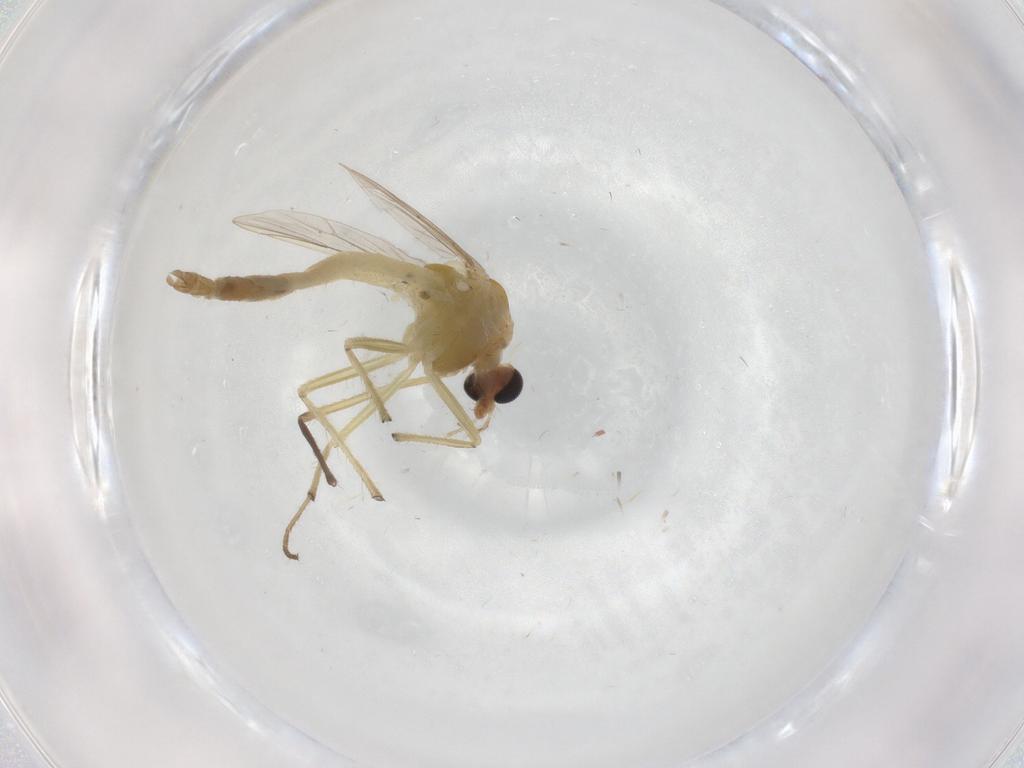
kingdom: Animalia
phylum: Arthropoda
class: Insecta
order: Diptera
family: Chironomidae
